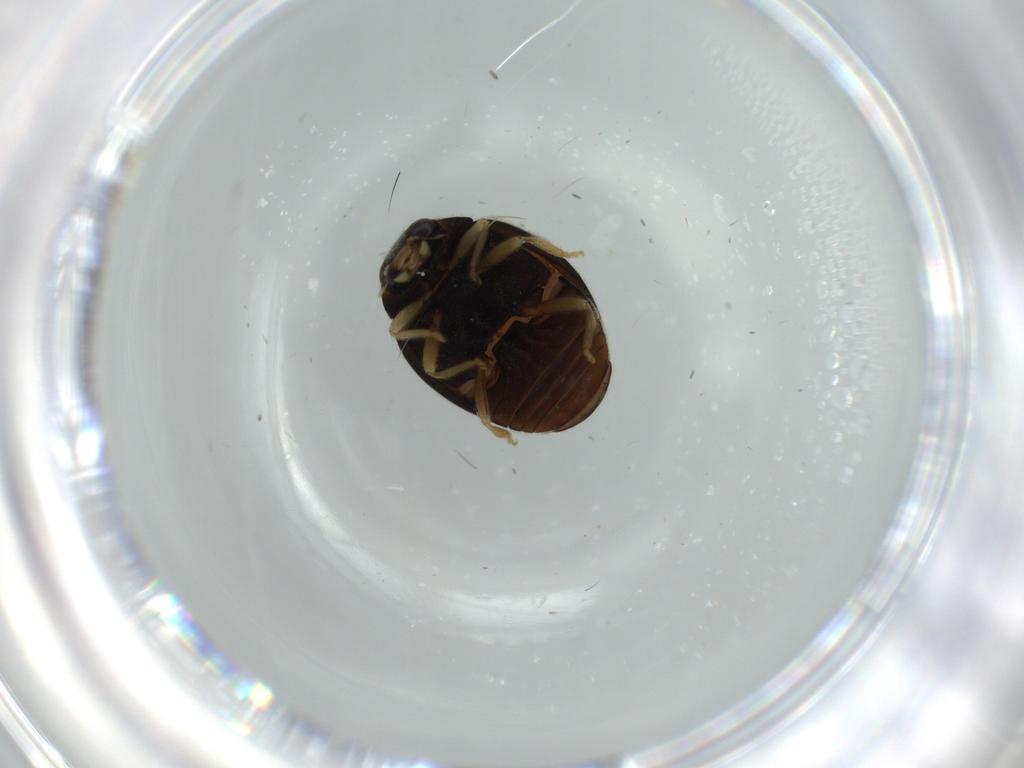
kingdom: Animalia
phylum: Arthropoda
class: Insecta
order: Coleoptera
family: Coccinellidae
